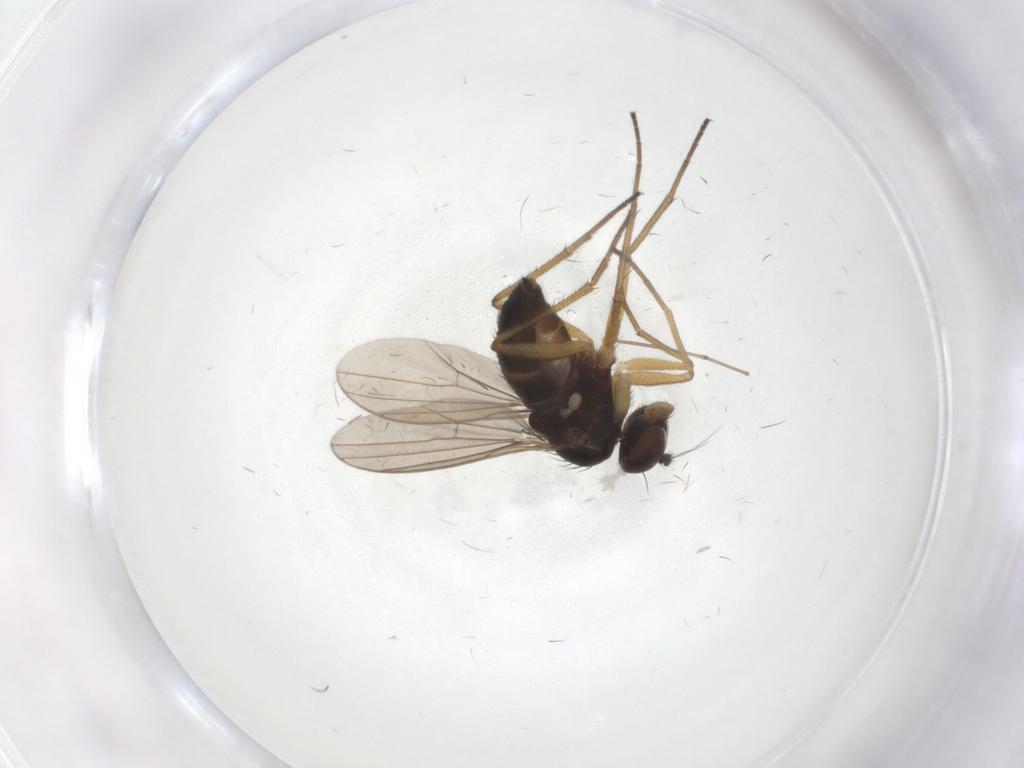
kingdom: Animalia
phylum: Arthropoda
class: Insecta
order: Diptera
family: Dolichopodidae
